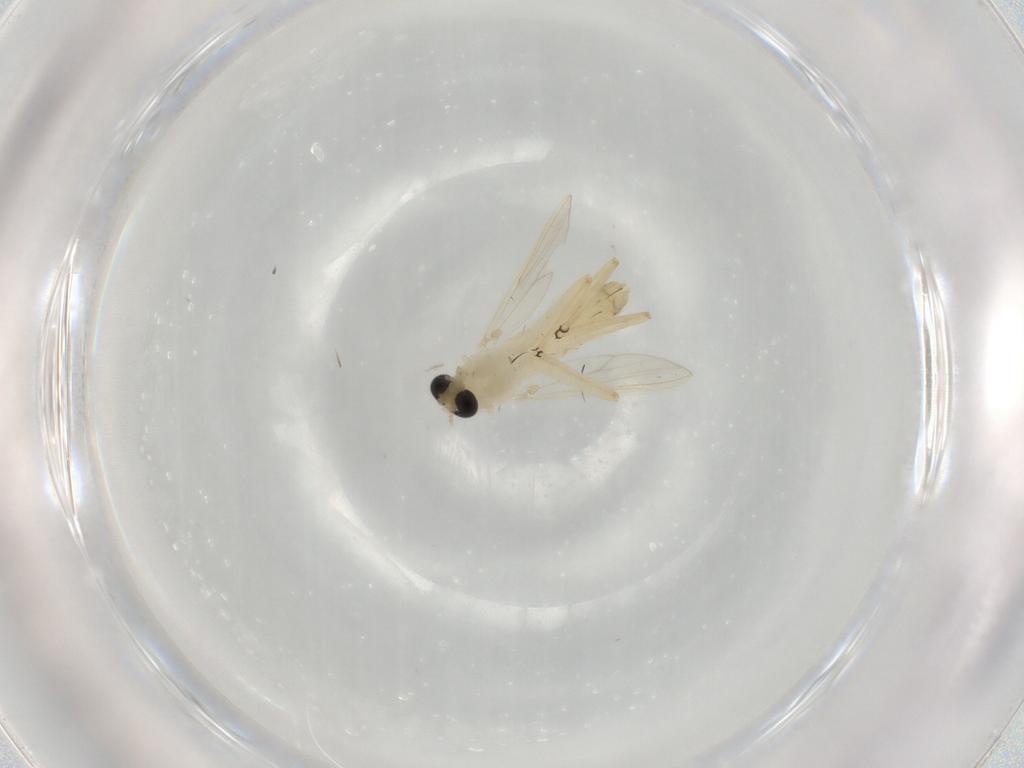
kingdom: Animalia
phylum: Arthropoda
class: Insecta
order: Diptera
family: Chironomidae
